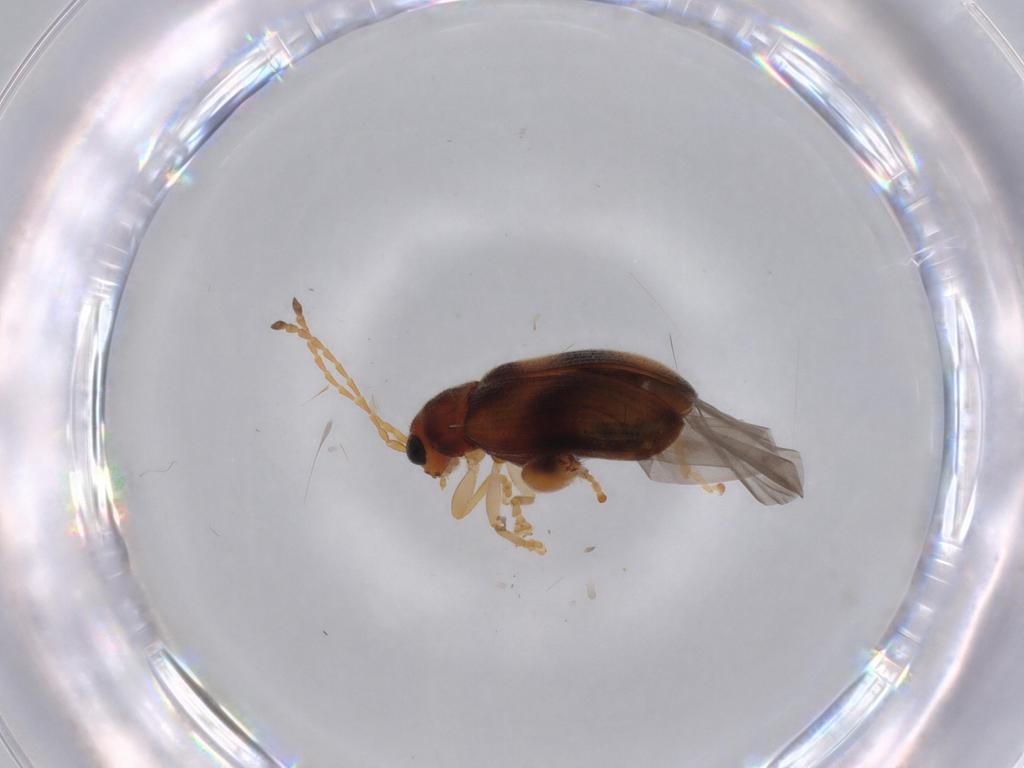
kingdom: Animalia
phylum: Arthropoda
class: Insecta
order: Coleoptera
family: Chrysomelidae
